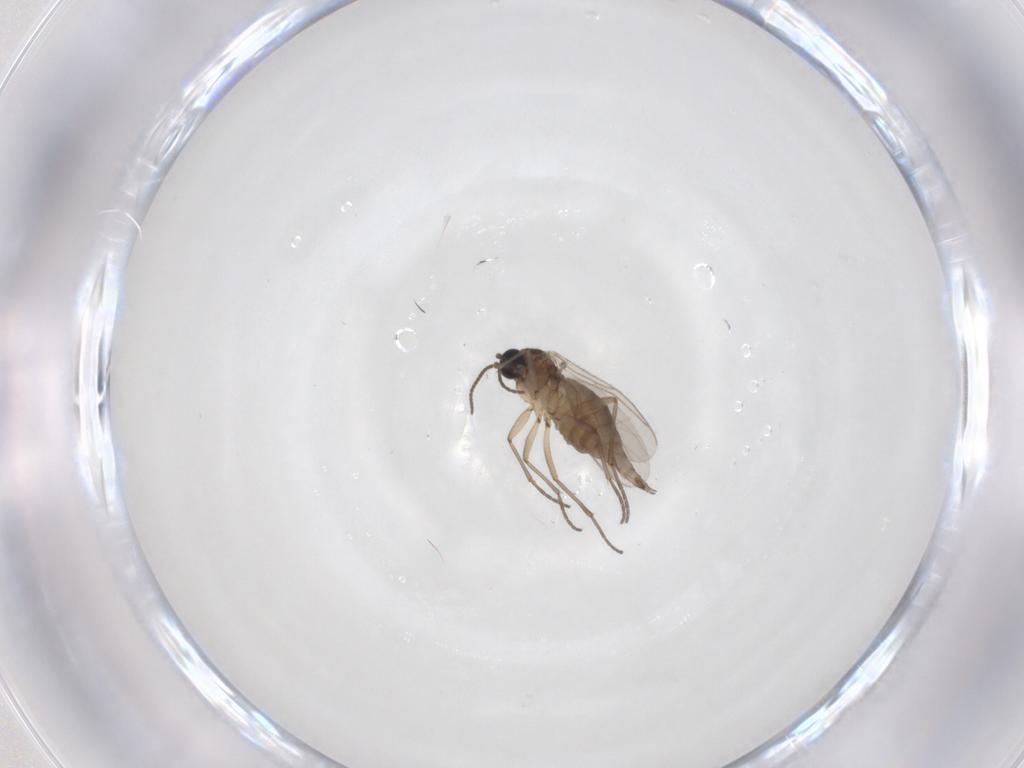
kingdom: Animalia
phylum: Arthropoda
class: Insecta
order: Diptera
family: Sciaridae
